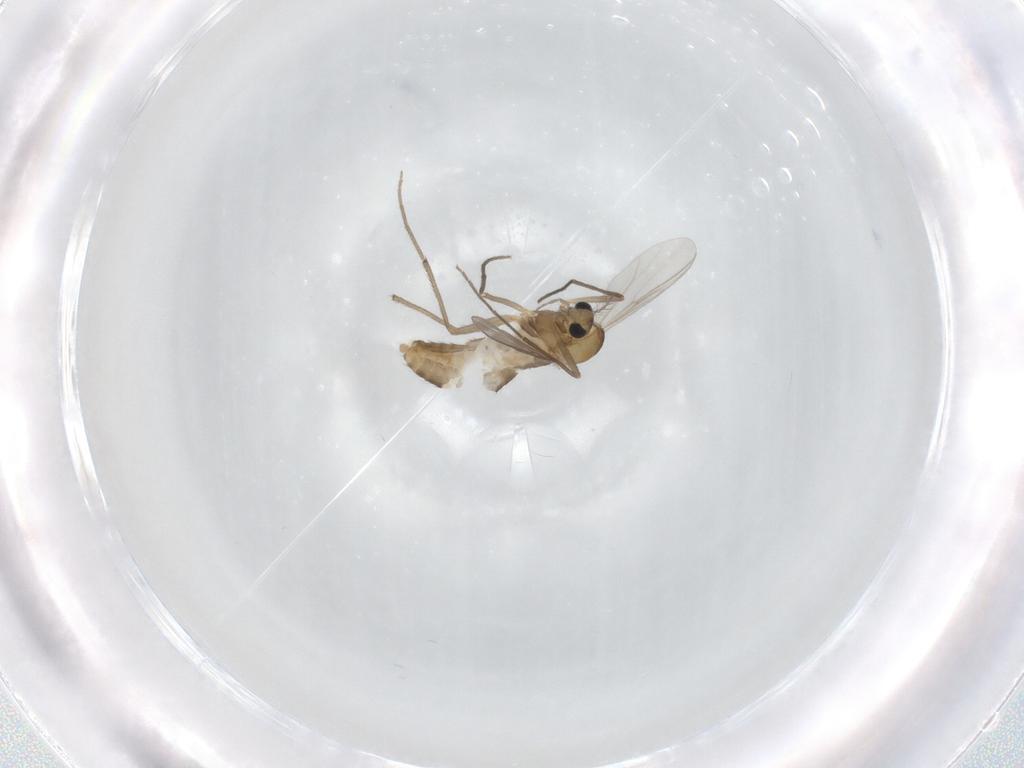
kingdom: Animalia
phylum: Arthropoda
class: Insecta
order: Diptera
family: Chironomidae
